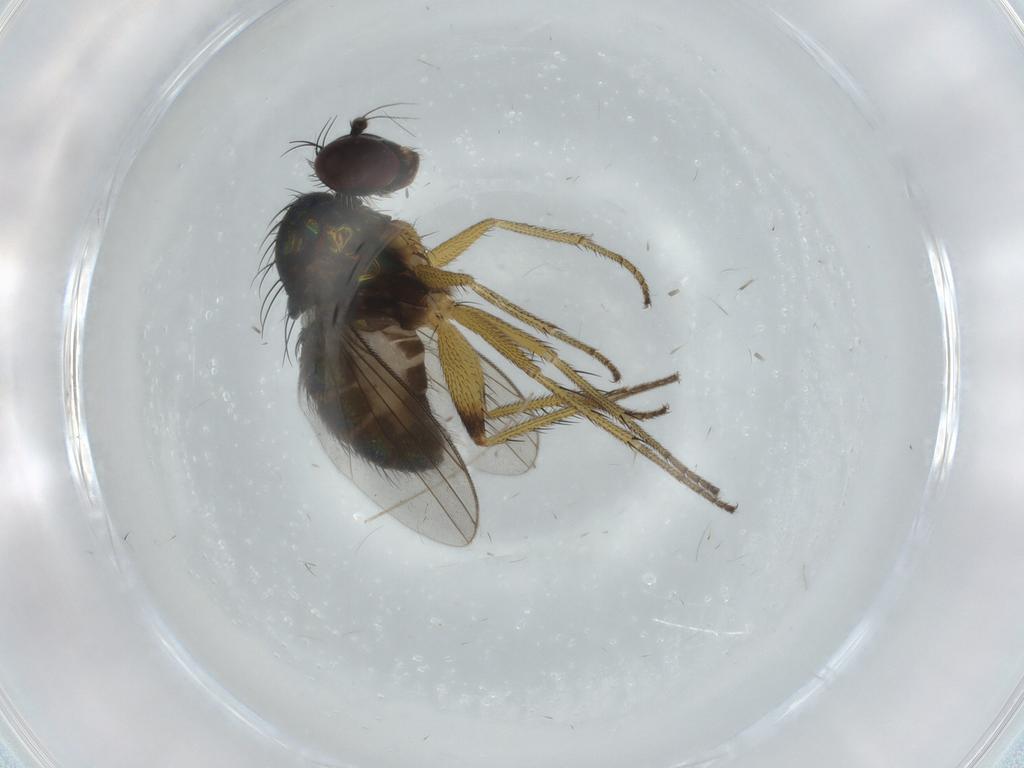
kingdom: Animalia
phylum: Arthropoda
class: Insecta
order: Diptera
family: Dolichopodidae
